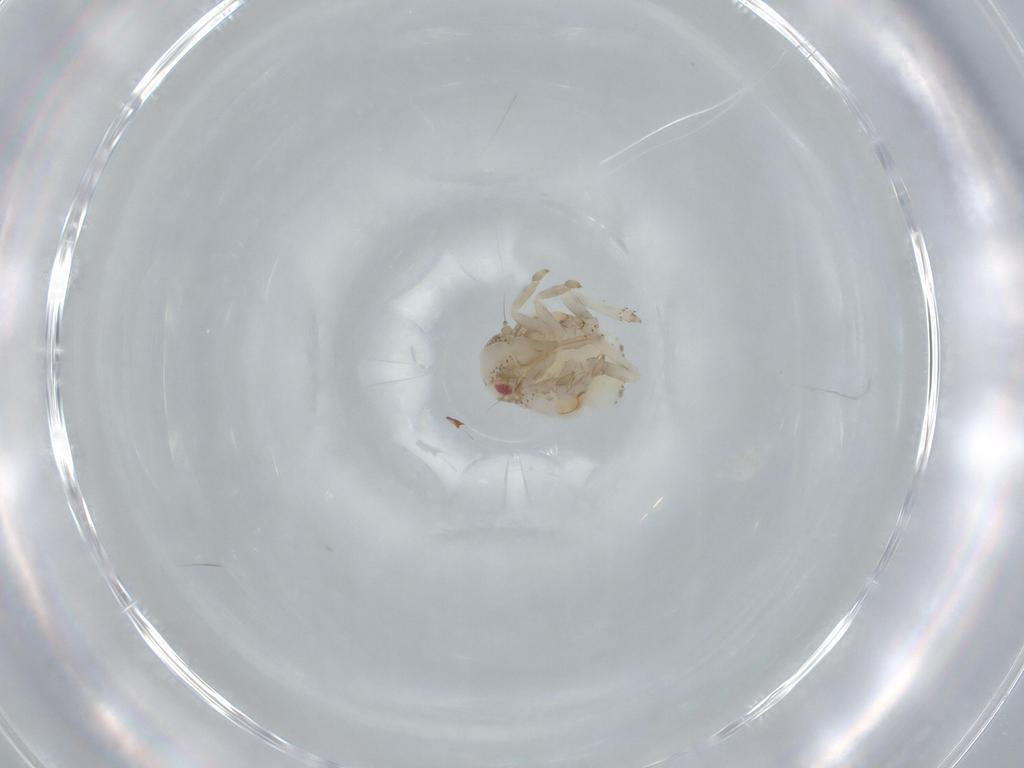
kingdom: Animalia
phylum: Arthropoda
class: Insecta
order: Hemiptera
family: Acanaloniidae
